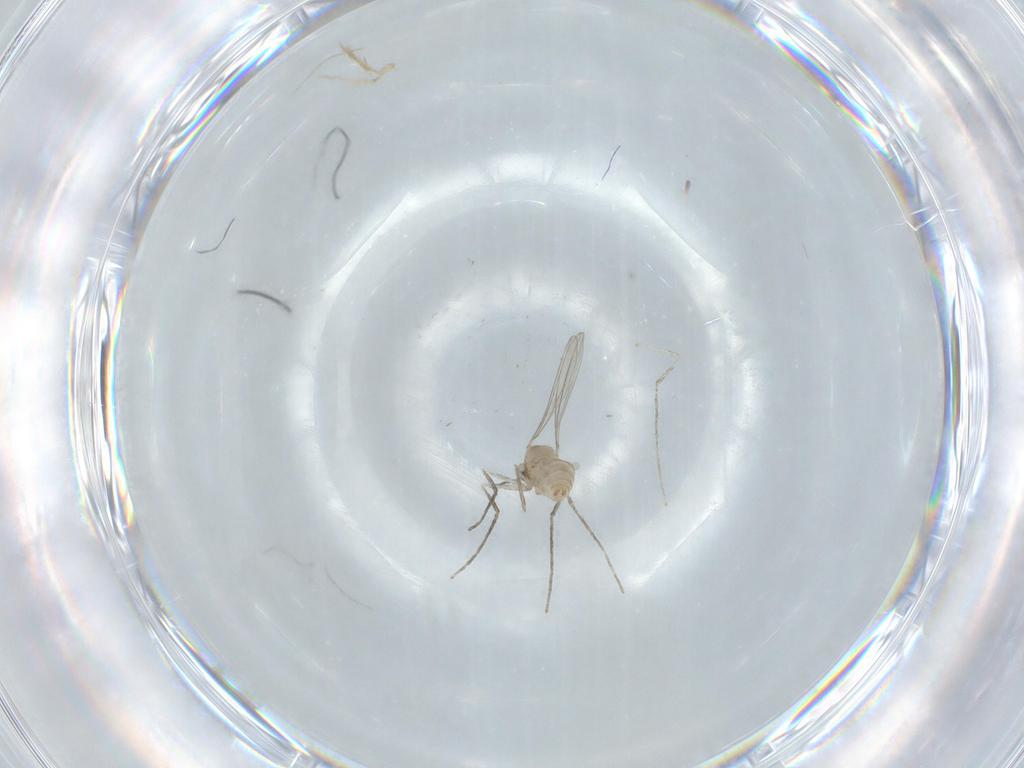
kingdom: Animalia
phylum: Arthropoda
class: Insecta
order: Diptera
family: Cecidomyiidae
